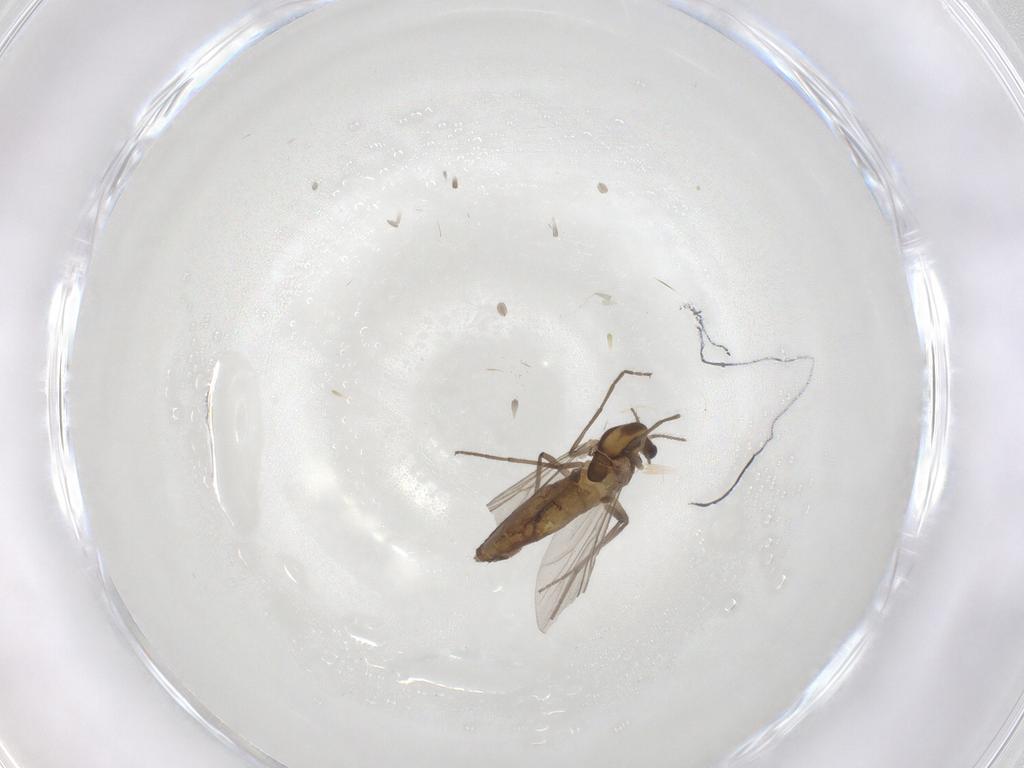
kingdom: Animalia
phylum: Arthropoda
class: Insecta
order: Diptera
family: Chironomidae
